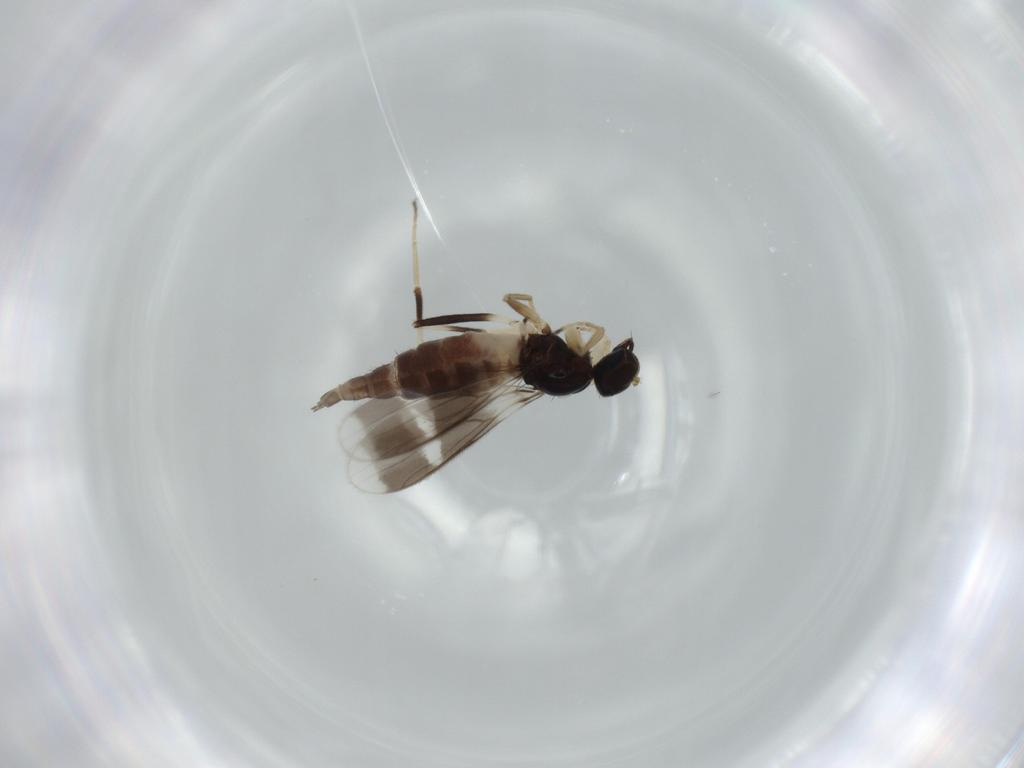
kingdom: Animalia
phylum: Arthropoda
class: Insecta
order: Diptera
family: Hybotidae
